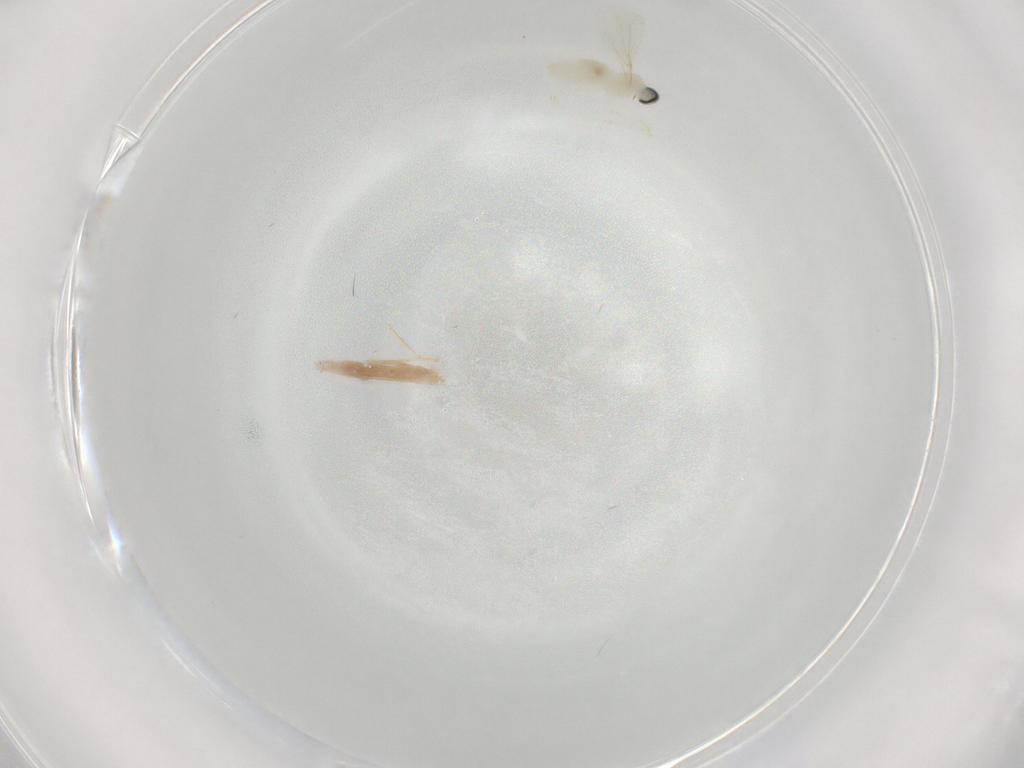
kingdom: Animalia
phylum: Arthropoda
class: Insecta
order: Diptera
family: Cecidomyiidae
